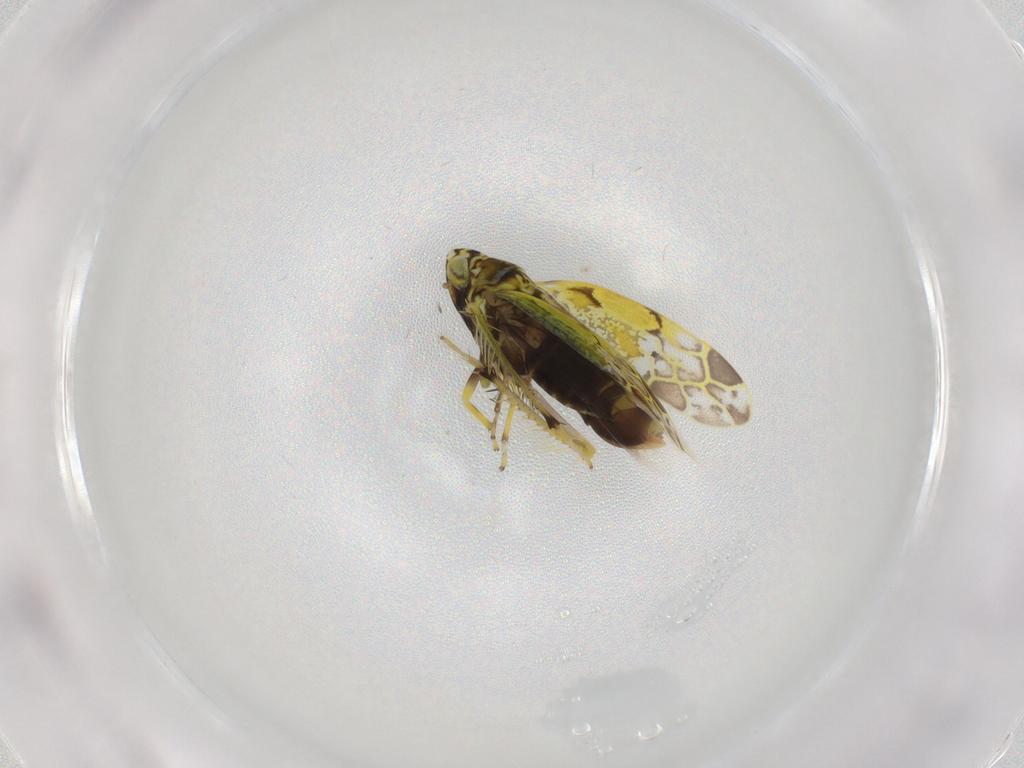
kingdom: Animalia
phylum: Arthropoda
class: Insecta
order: Hemiptera
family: Cicadellidae
